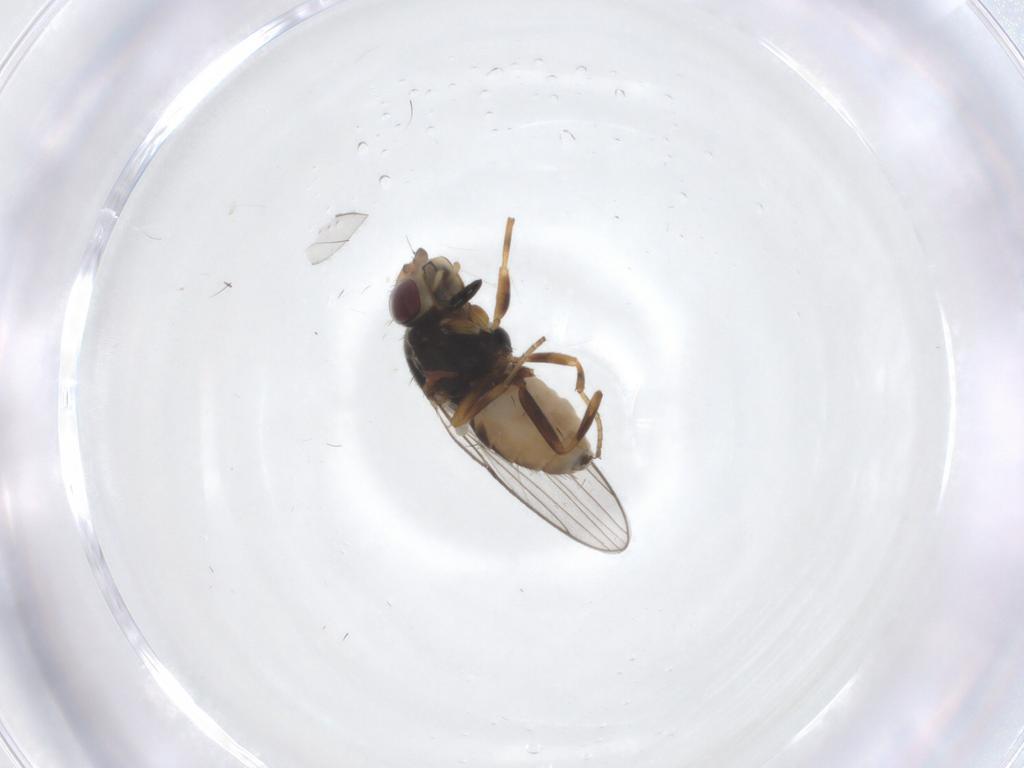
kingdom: Animalia
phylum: Arthropoda
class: Insecta
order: Diptera
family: Chloropidae
